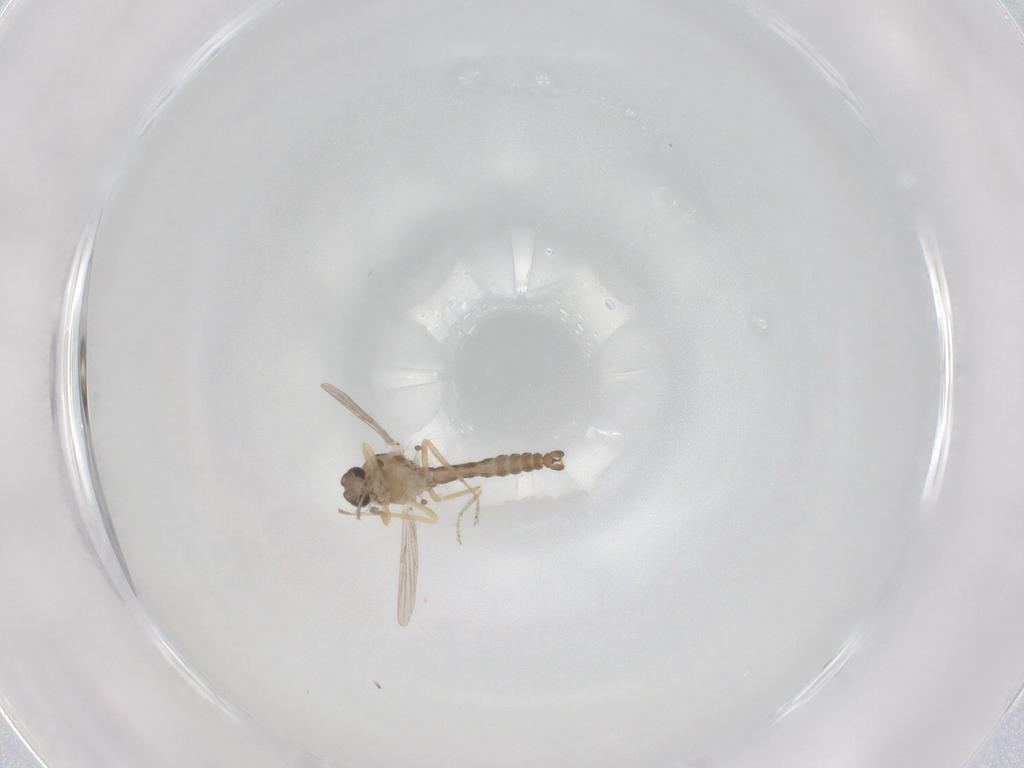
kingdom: Animalia
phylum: Arthropoda
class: Insecta
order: Diptera
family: Ceratopogonidae
